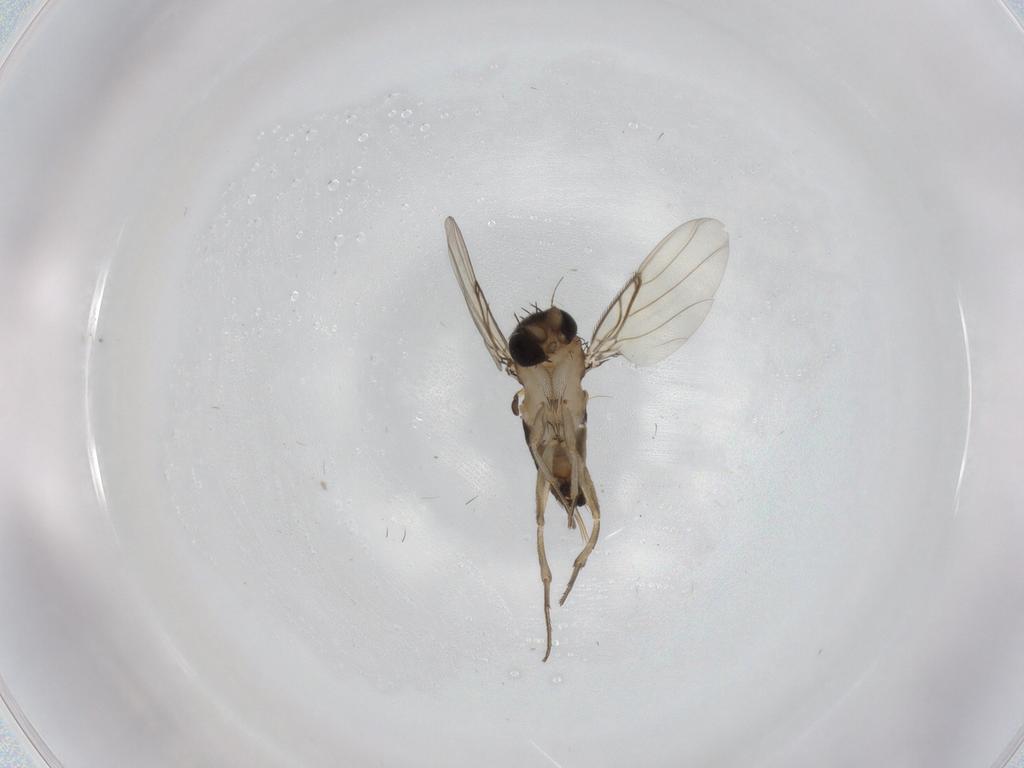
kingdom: Animalia
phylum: Arthropoda
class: Insecta
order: Diptera
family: Phoridae
